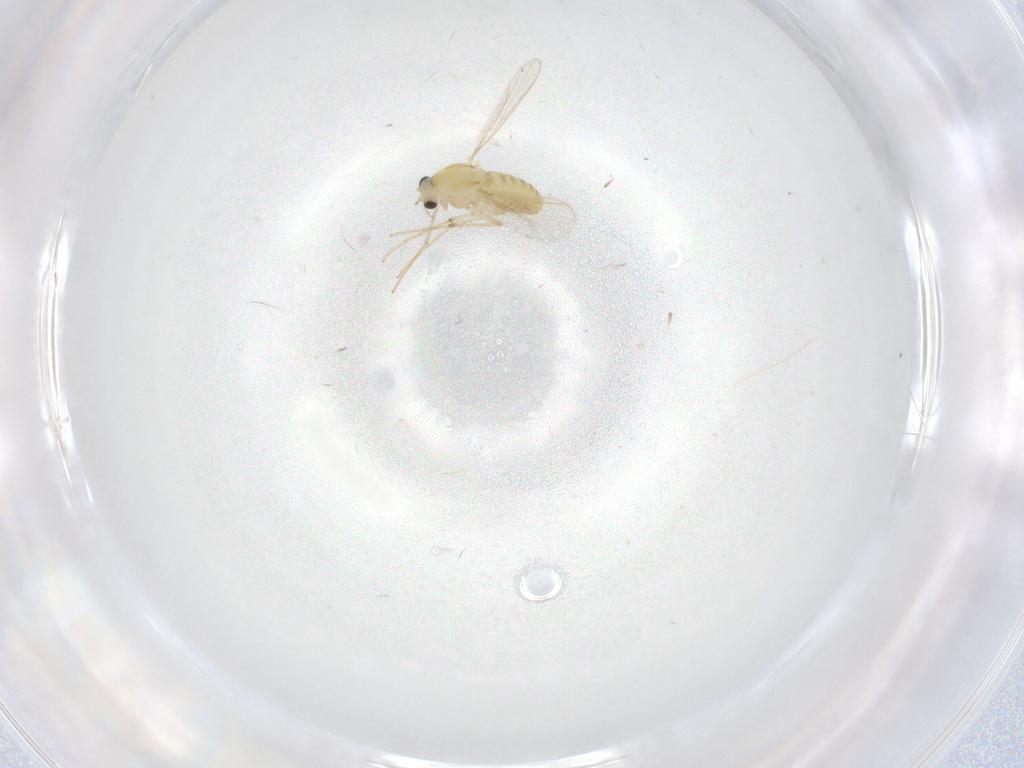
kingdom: Animalia
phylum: Arthropoda
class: Insecta
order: Diptera
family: Chironomidae
